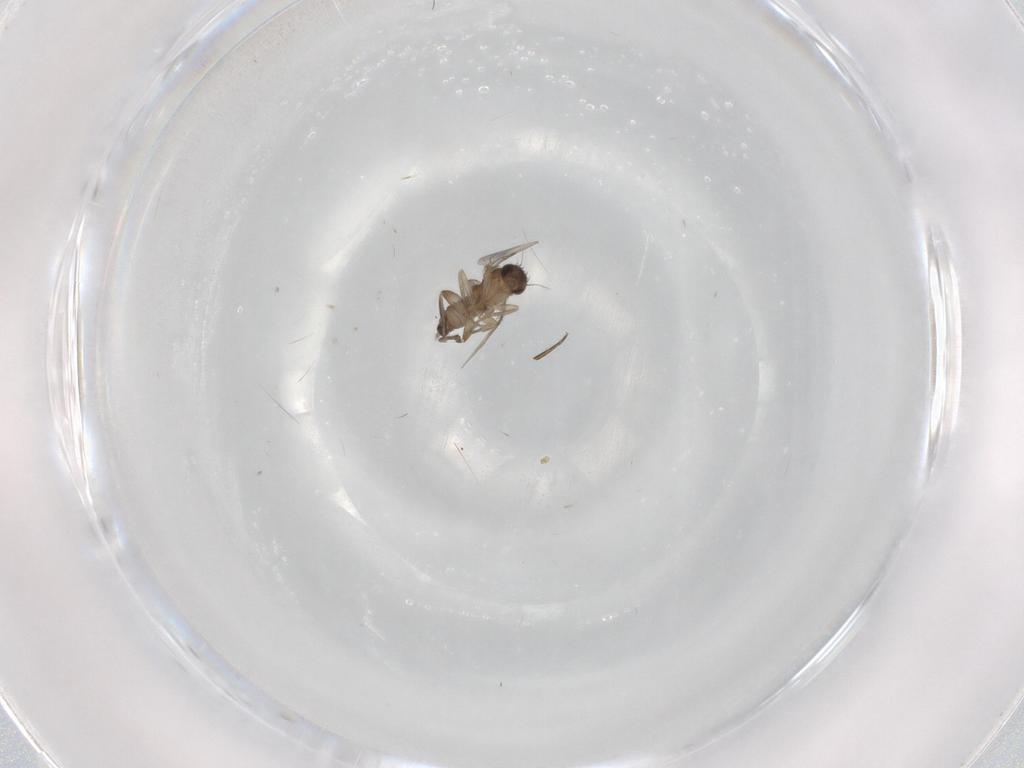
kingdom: Animalia
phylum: Arthropoda
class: Insecta
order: Diptera
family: Phoridae
